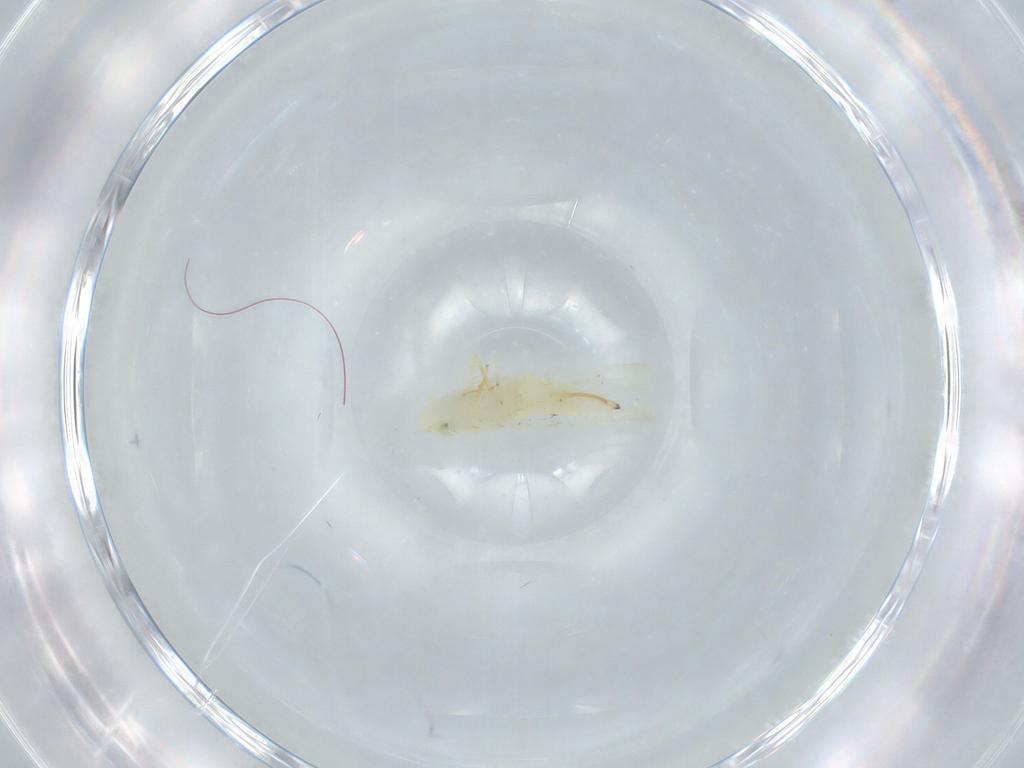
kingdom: Animalia
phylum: Arthropoda
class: Insecta
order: Hemiptera
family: Cicadellidae
